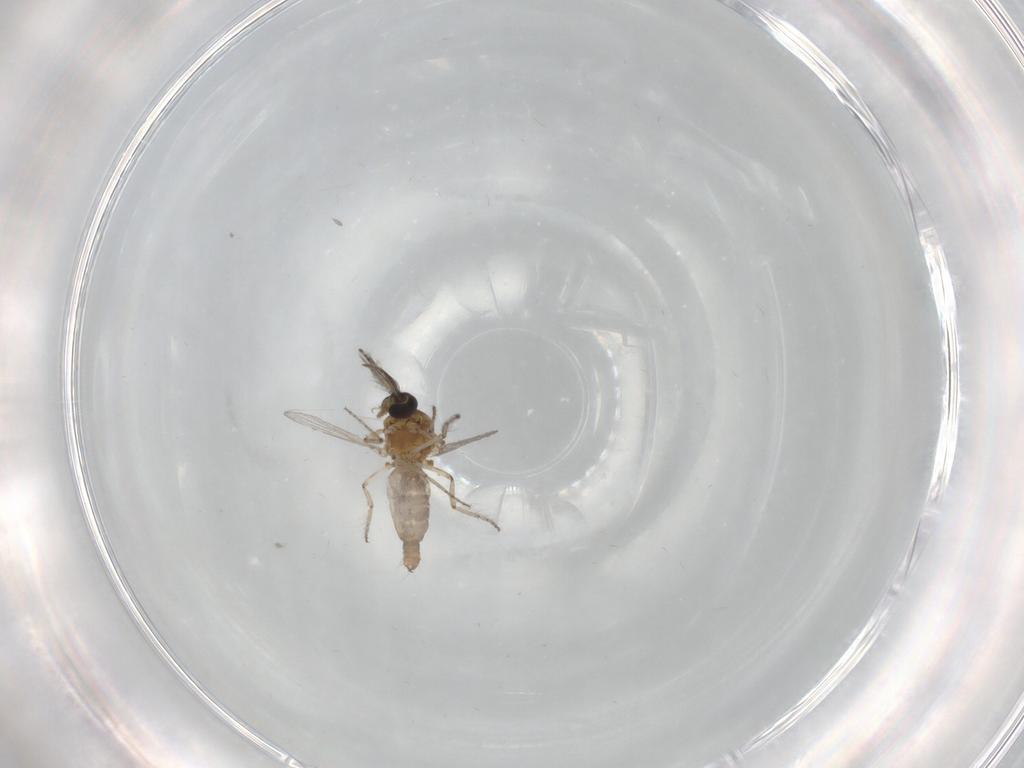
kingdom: Animalia
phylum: Arthropoda
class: Insecta
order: Diptera
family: Ceratopogonidae
